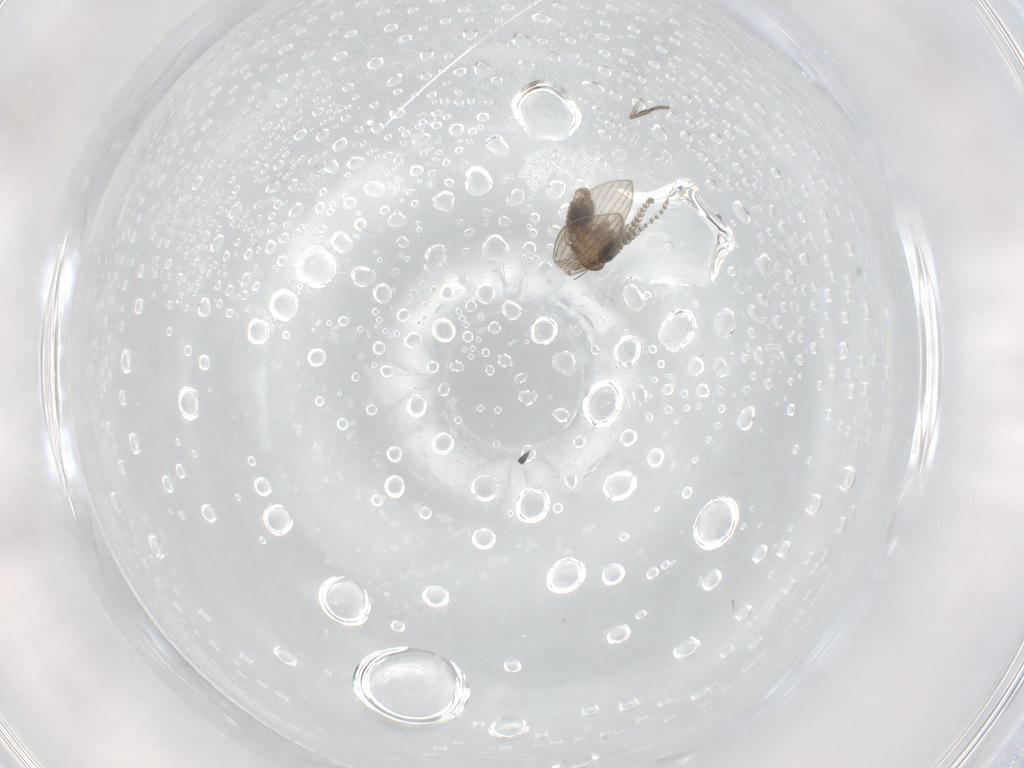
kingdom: Animalia
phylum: Arthropoda
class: Insecta
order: Diptera
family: Psychodidae
